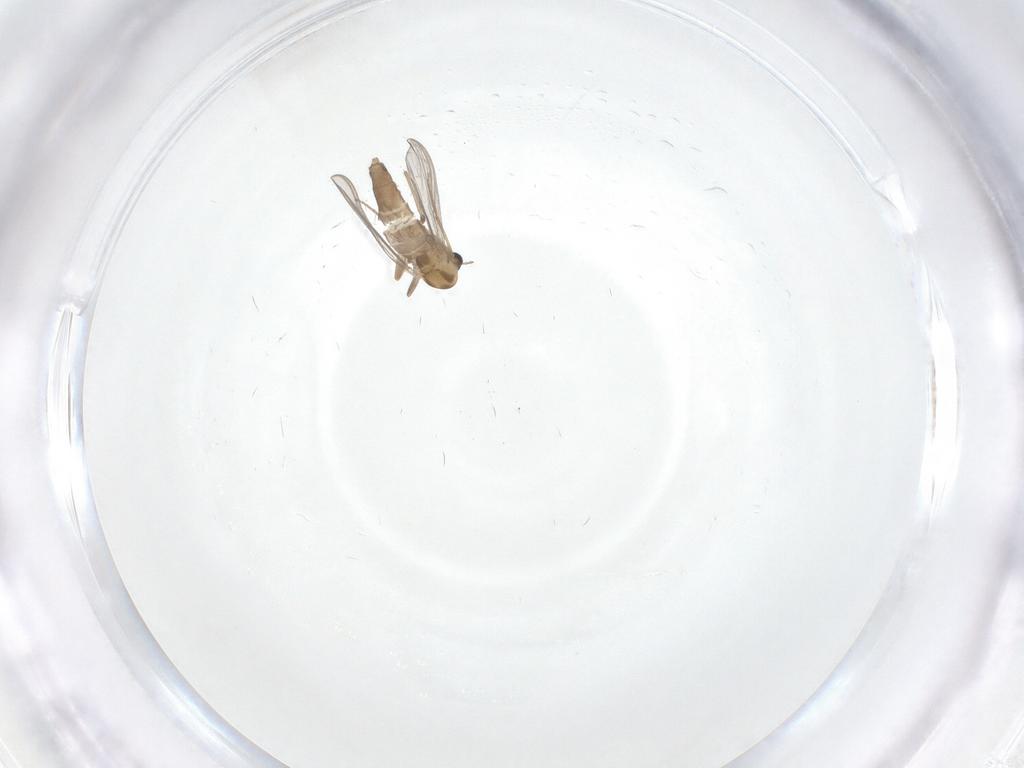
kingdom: Animalia
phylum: Arthropoda
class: Insecta
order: Diptera
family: Chironomidae
